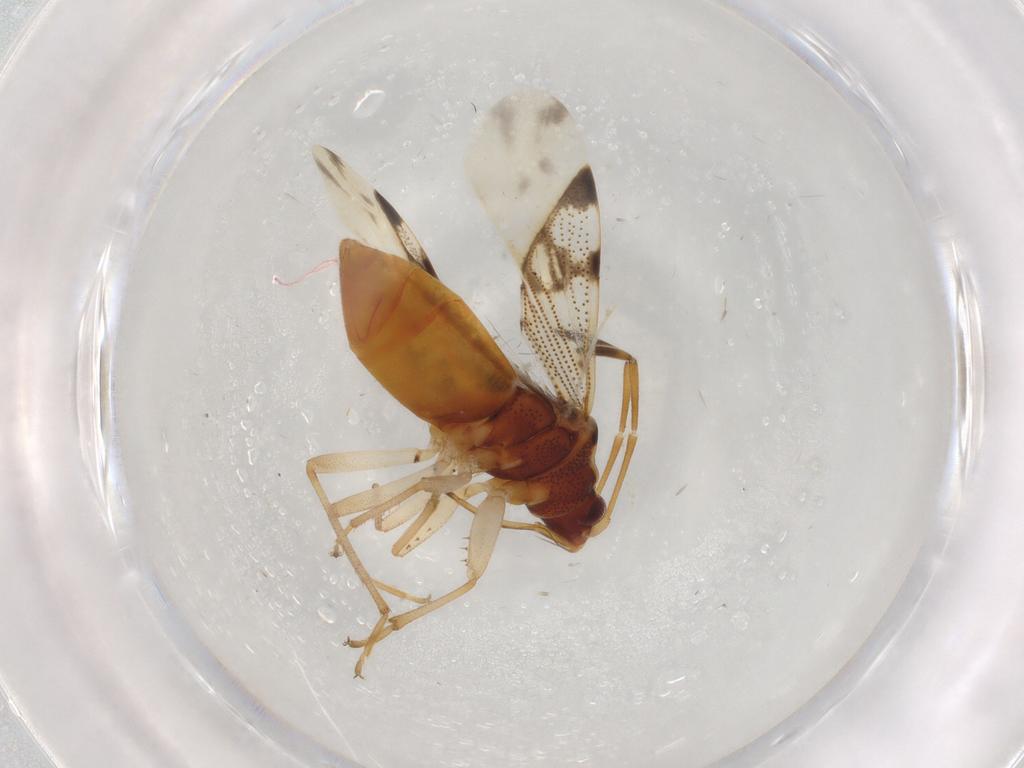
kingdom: Animalia
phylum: Arthropoda
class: Insecta
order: Hemiptera
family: Rhyparochromidae
